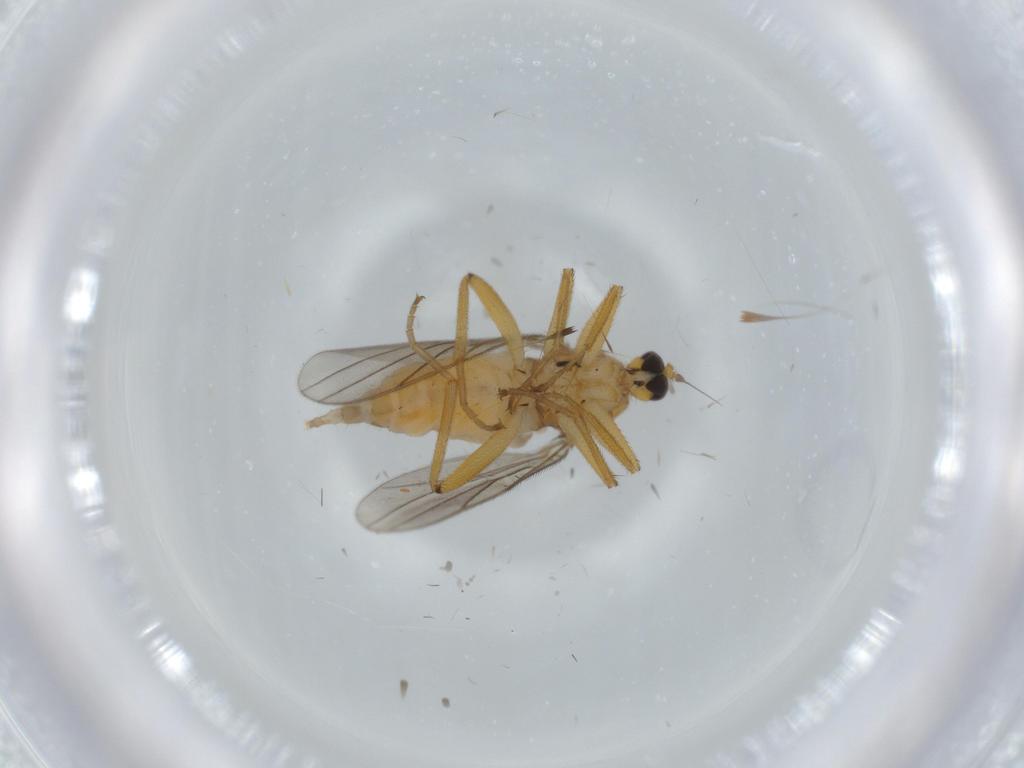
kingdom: Animalia
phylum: Arthropoda
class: Insecta
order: Diptera
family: Hybotidae
